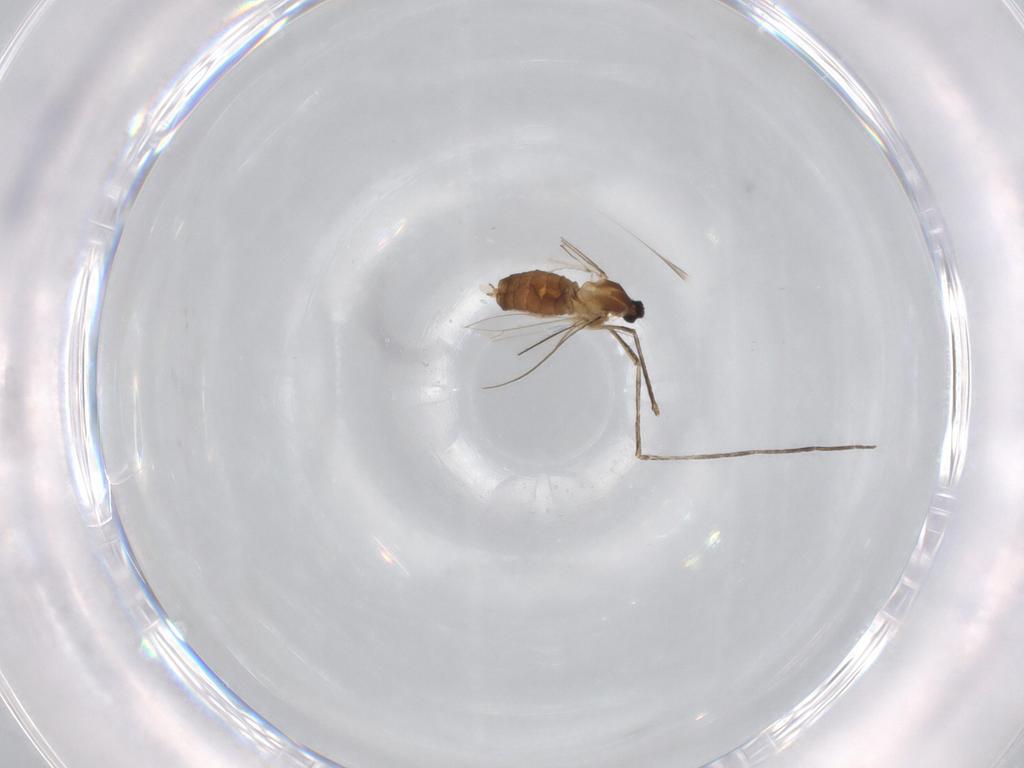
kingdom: Animalia
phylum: Arthropoda
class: Insecta
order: Diptera
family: Cecidomyiidae
